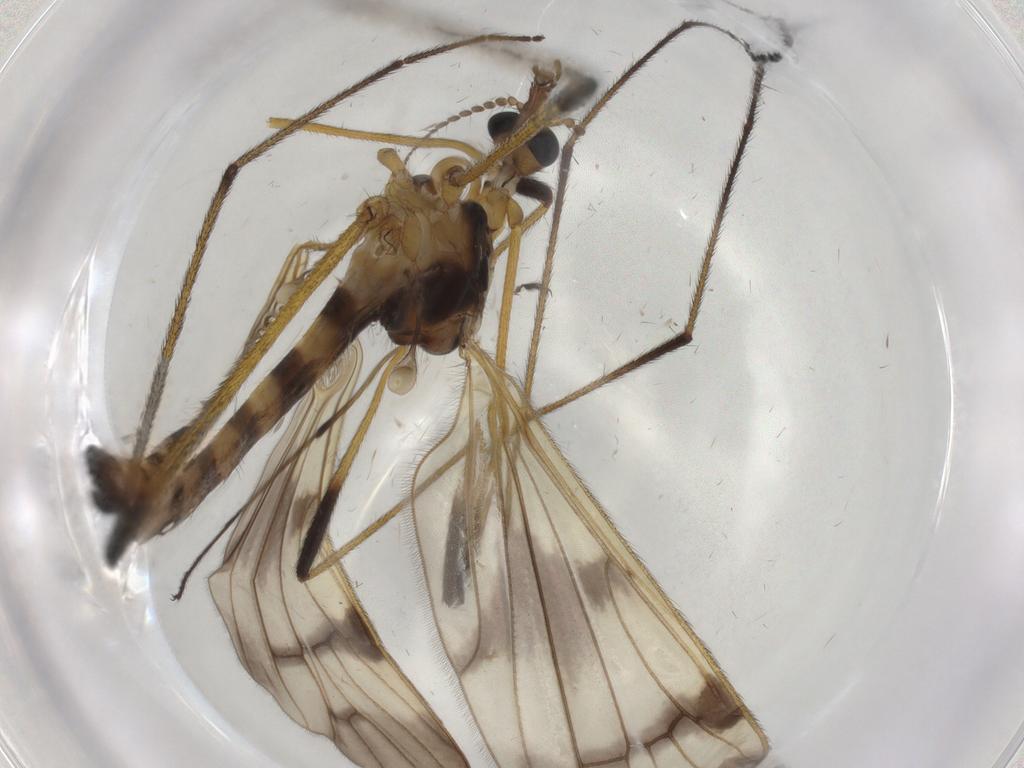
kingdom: Animalia
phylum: Arthropoda
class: Insecta
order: Diptera
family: Limoniidae
